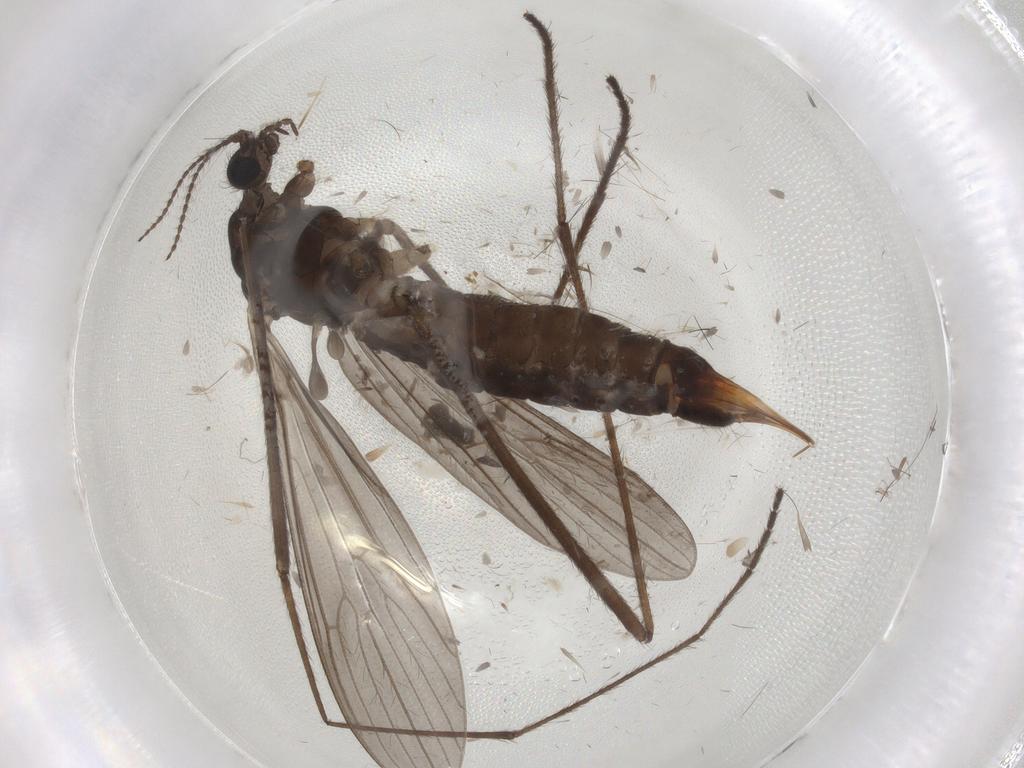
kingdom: Animalia
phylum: Arthropoda
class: Insecta
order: Diptera
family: Limoniidae
